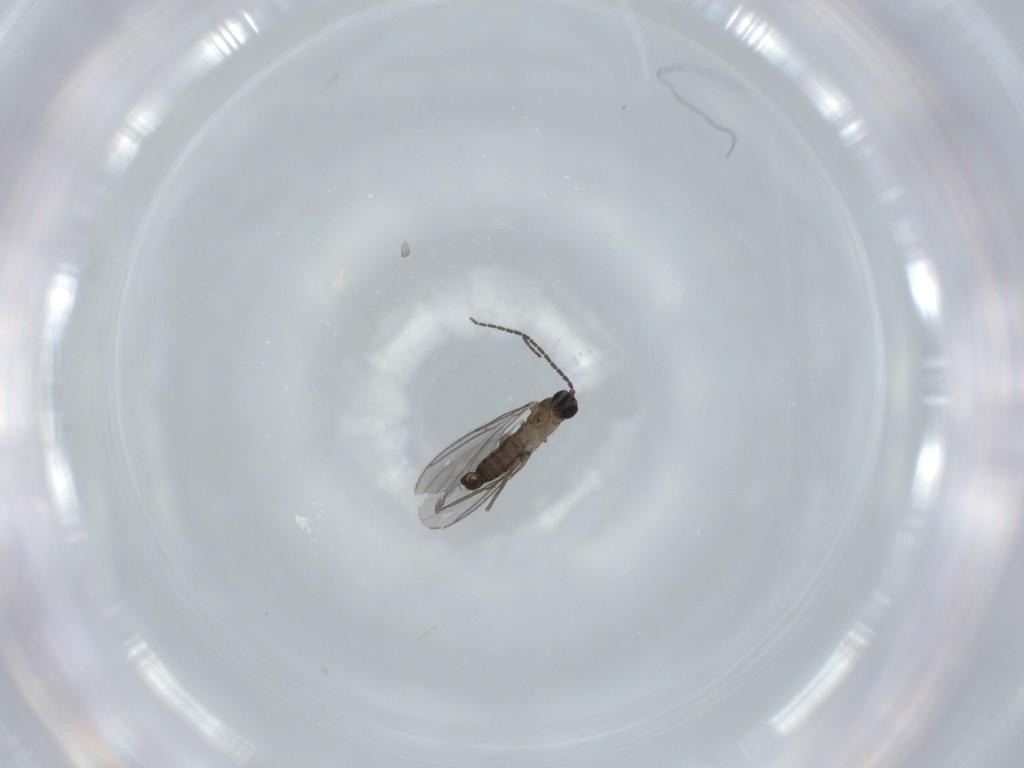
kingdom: Animalia
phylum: Arthropoda
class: Insecta
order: Diptera
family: Sciaridae
